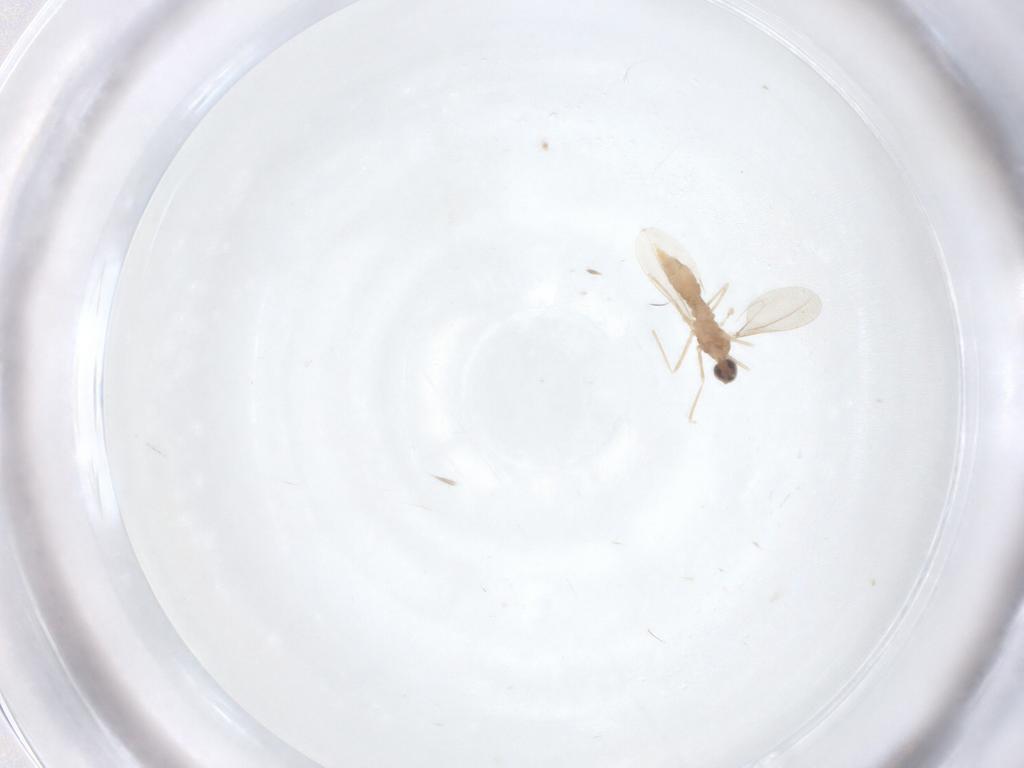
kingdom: Animalia
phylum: Arthropoda
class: Insecta
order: Diptera
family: Cecidomyiidae
